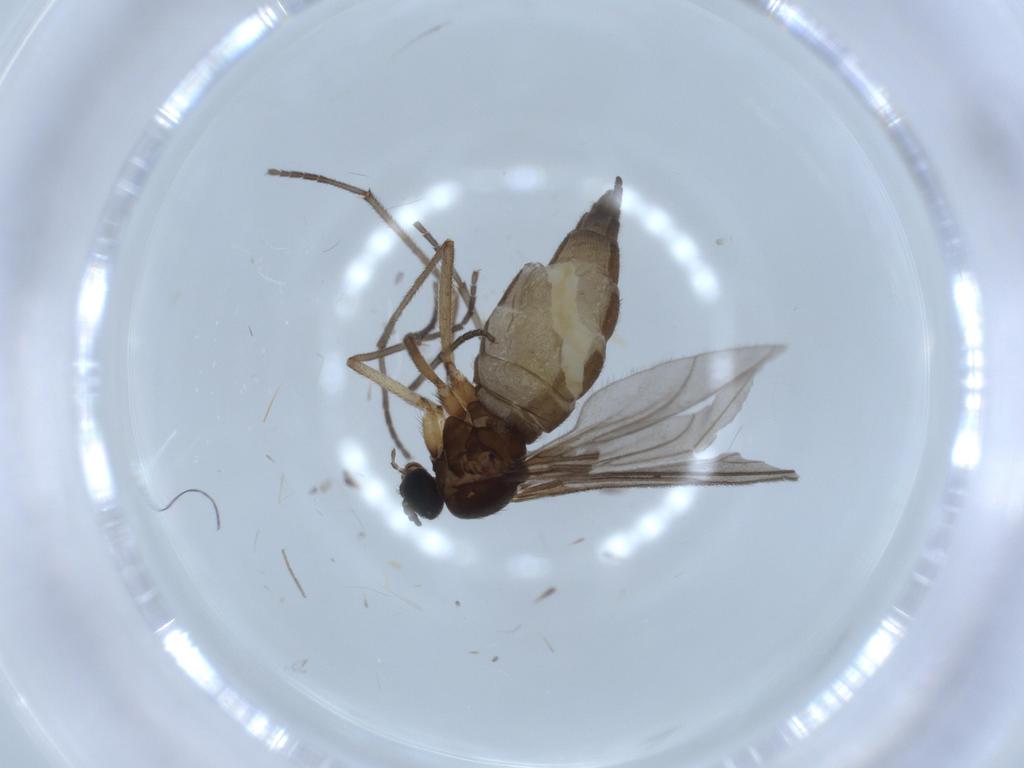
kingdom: Animalia
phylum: Arthropoda
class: Insecta
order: Diptera
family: Sciaridae
